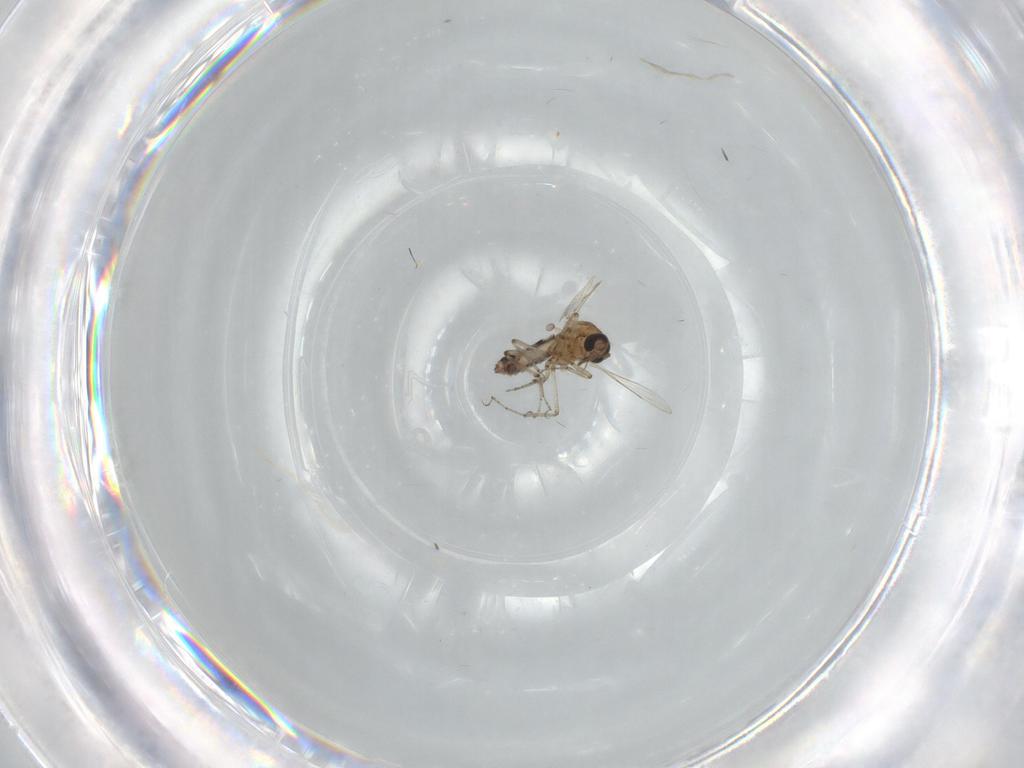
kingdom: Animalia
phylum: Arthropoda
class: Insecta
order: Diptera
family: Ceratopogonidae
